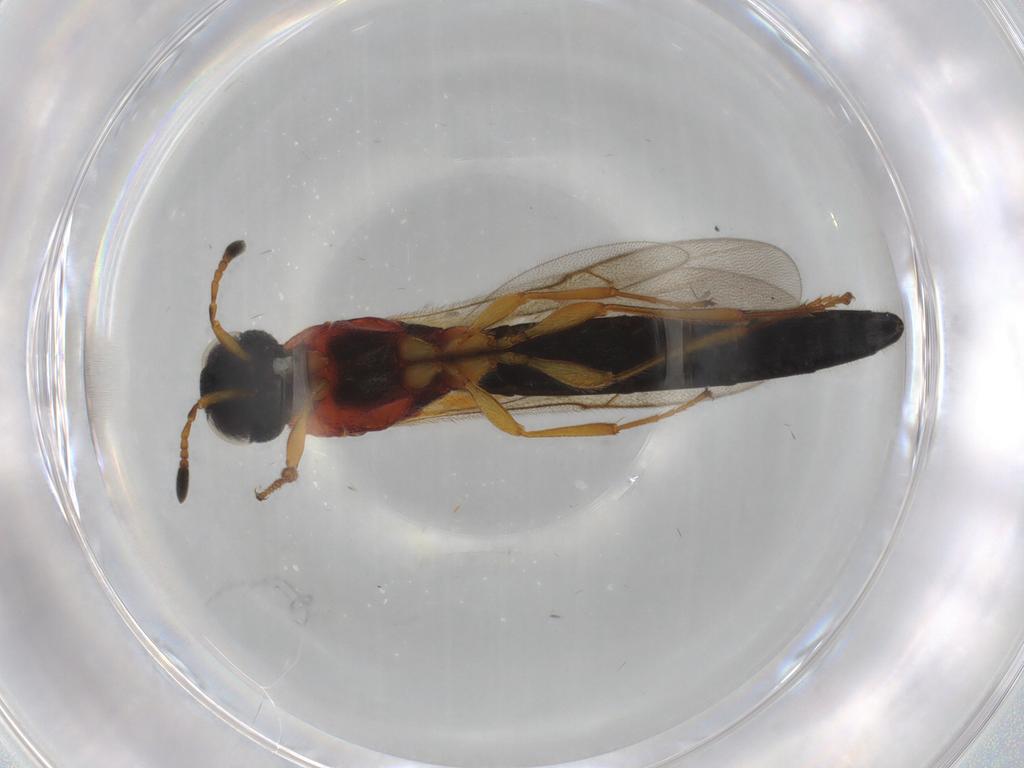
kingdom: Animalia
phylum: Arthropoda
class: Insecta
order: Hymenoptera
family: Scelionidae
